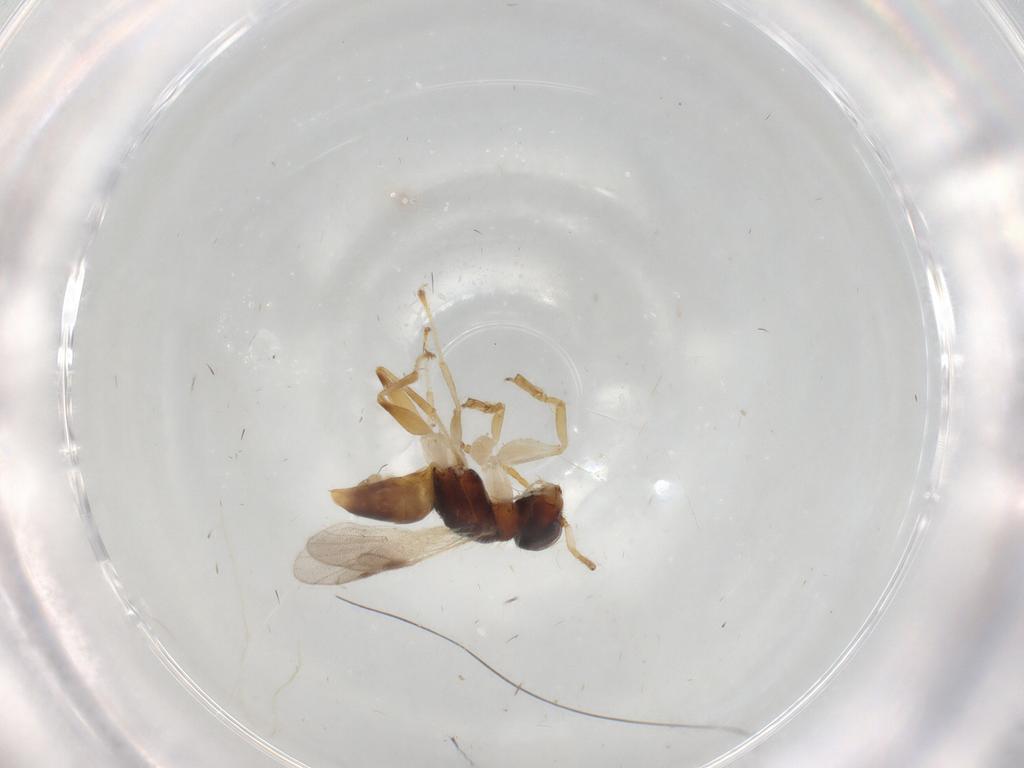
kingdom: Animalia
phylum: Arthropoda
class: Insecta
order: Hymenoptera
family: Dryinidae
